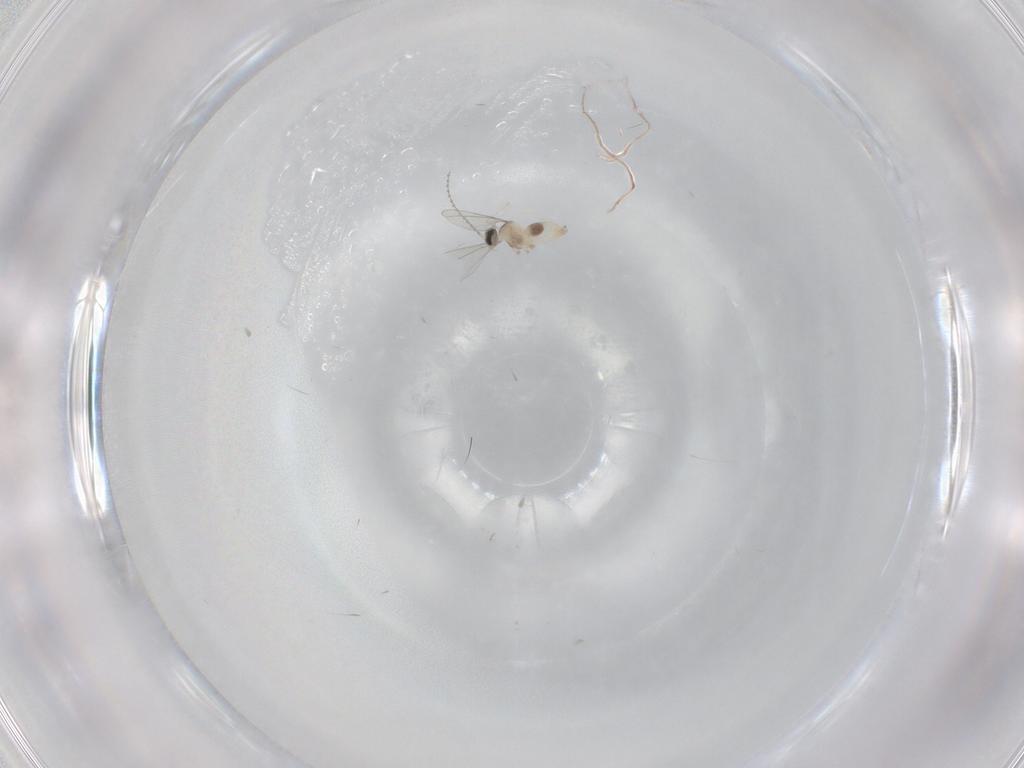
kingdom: Animalia
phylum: Arthropoda
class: Insecta
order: Diptera
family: Cecidomyiidae
